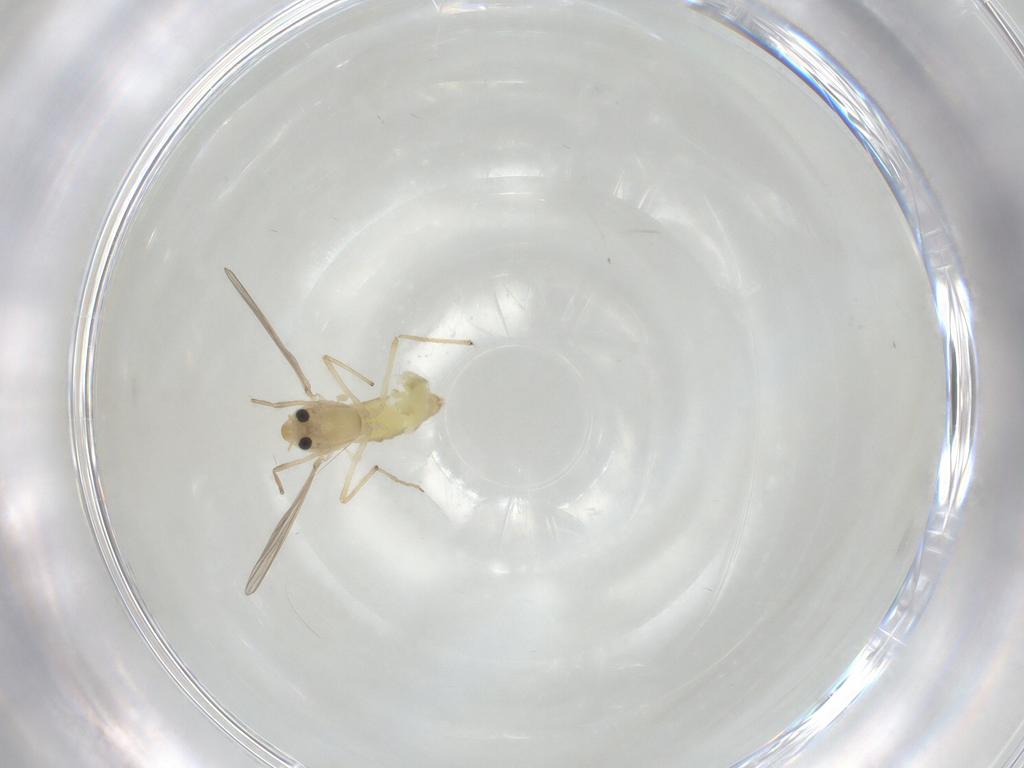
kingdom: Animalia
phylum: Arthropoda
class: Insecta
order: Diptera
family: Chironomidae
